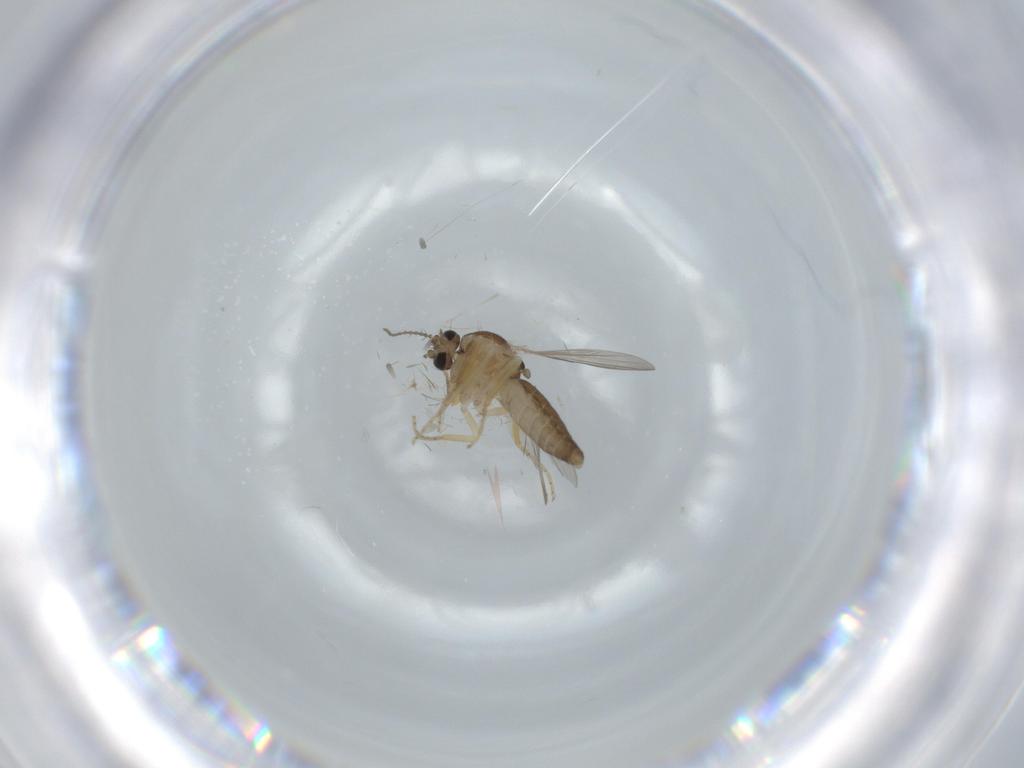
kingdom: Animalia
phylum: Arthropoda
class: Insecta
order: Diptera
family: Ceratopogonidae
